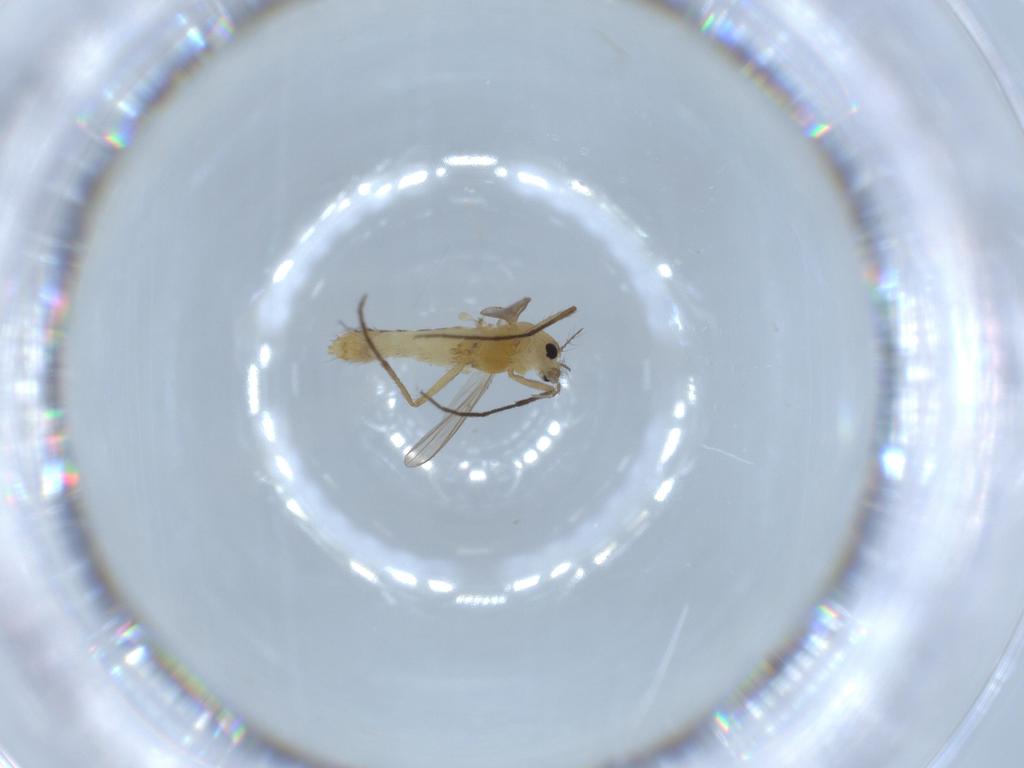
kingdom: Animalia
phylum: Arthropoda
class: Insecta
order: Diptera
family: Chironomidae
